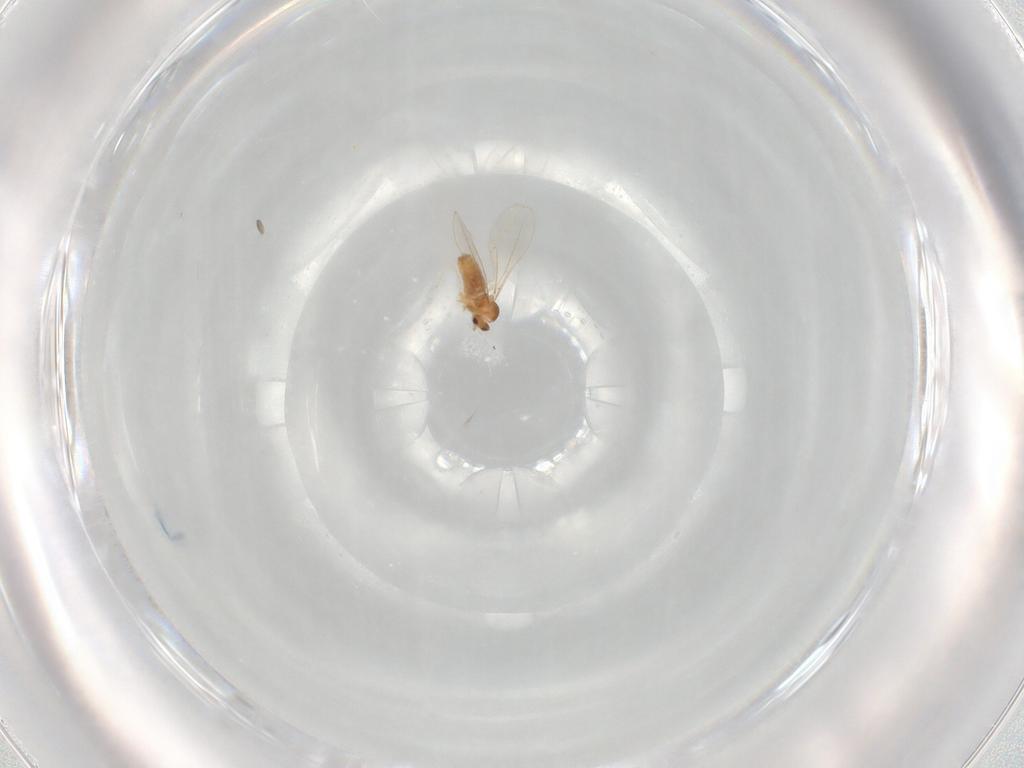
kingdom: Animalia
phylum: Arthropoda
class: Insecta
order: Diptera
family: Cecidomyiidae
